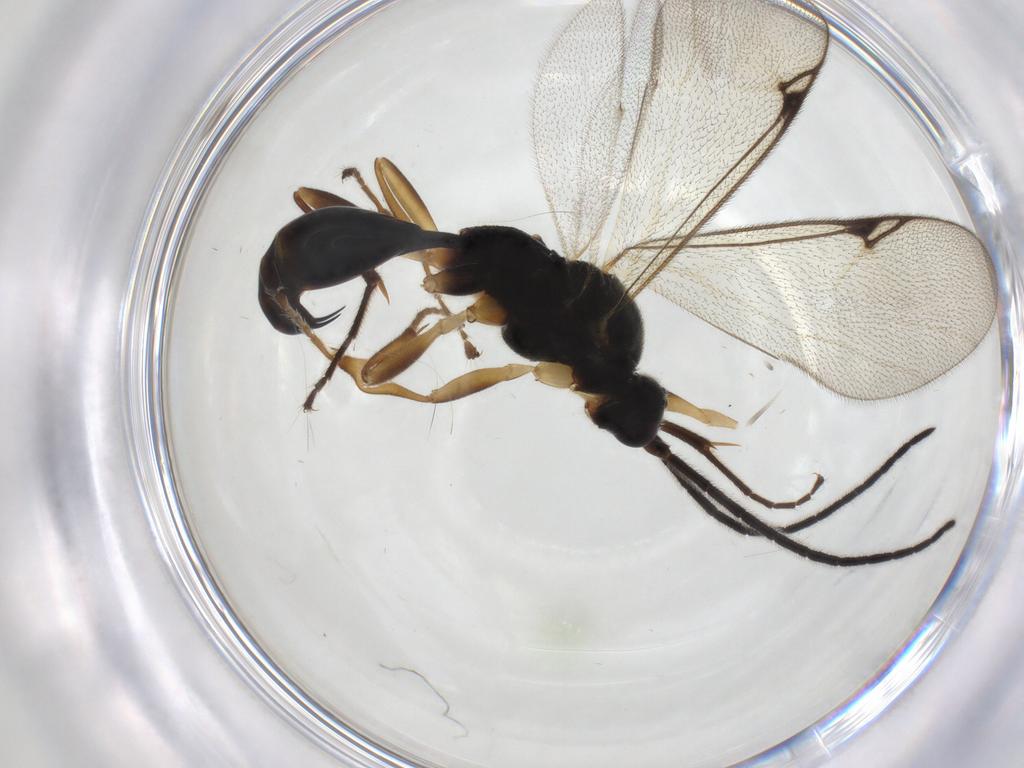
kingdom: Animalia
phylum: Arthropoda
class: Insecta
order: Hymenoptera
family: Proctotrupidae
